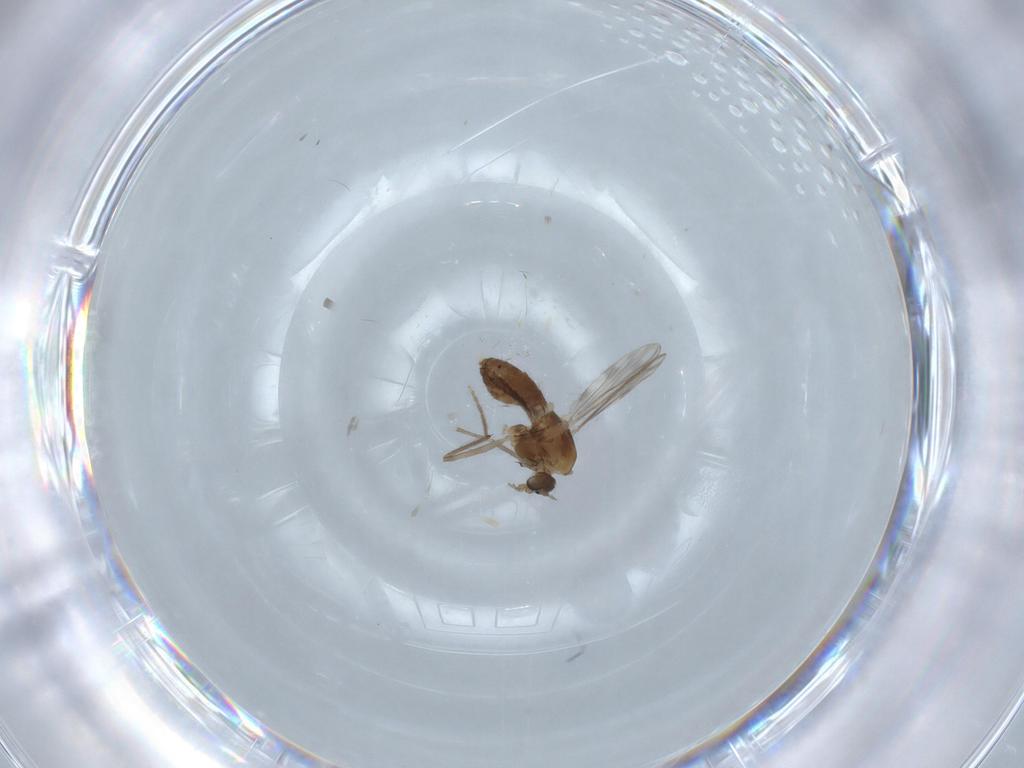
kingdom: Animalia
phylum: Arthropoda
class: Insecta
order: Diptera
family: Chironomidae
